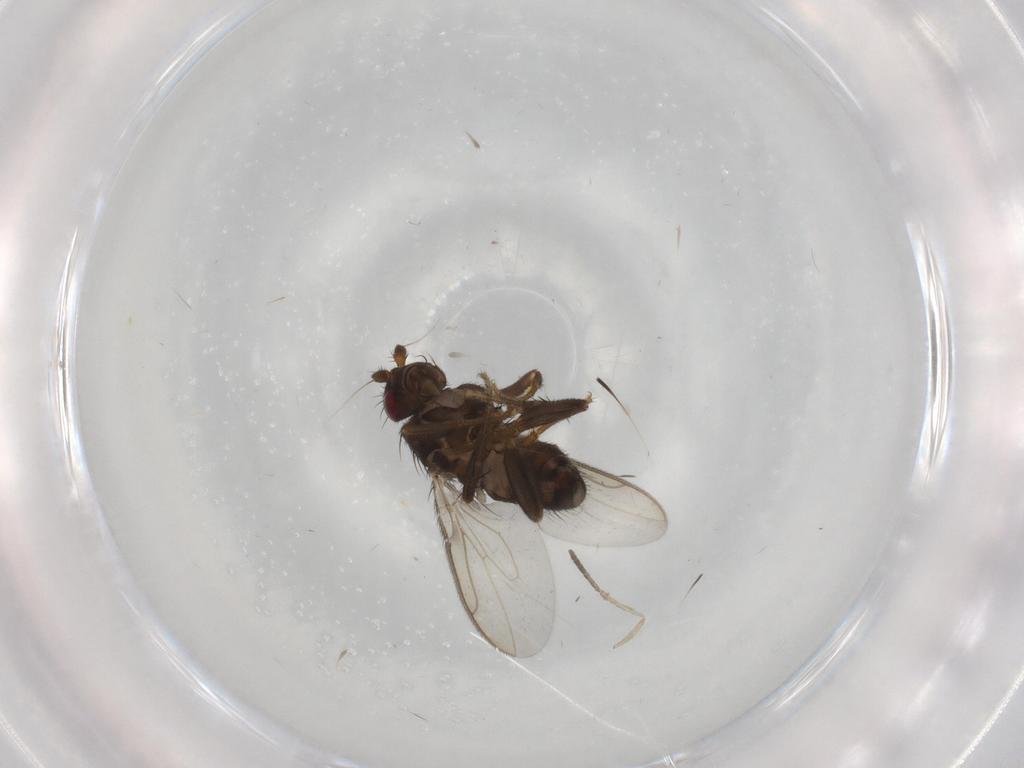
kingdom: Animalia
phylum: Arthropoda
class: Insecta
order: Diptera
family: Sphaeroceridae
